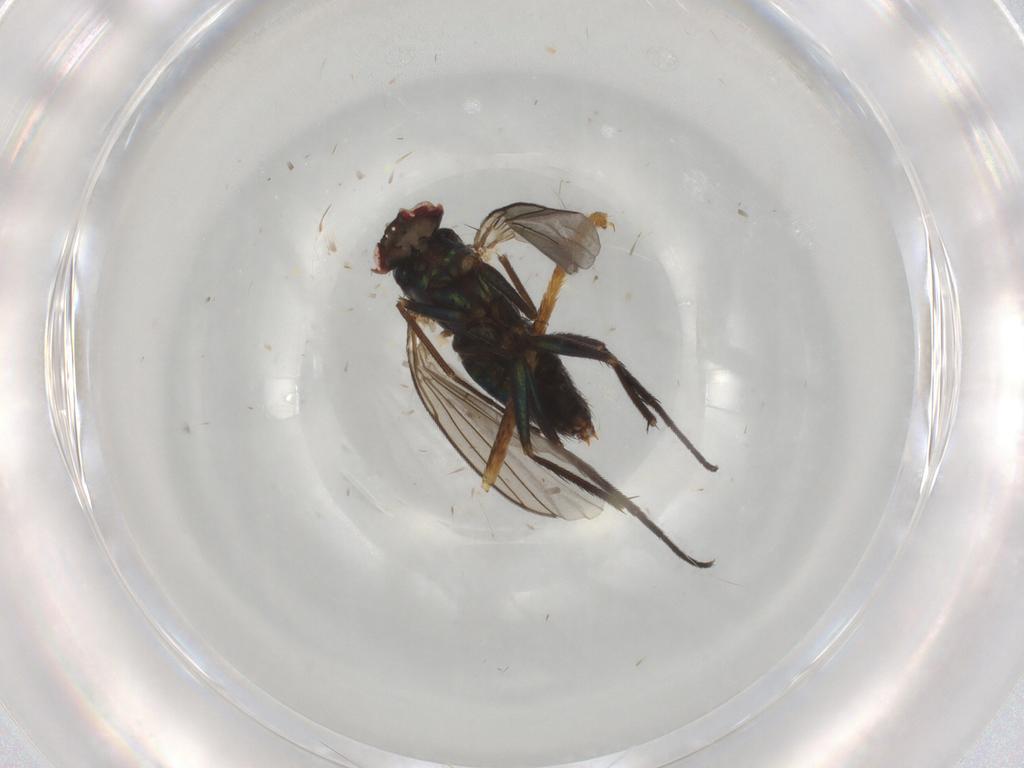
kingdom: Animalia
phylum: Arthropoda
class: Insecta
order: Diptera
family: Dolichopodidae
